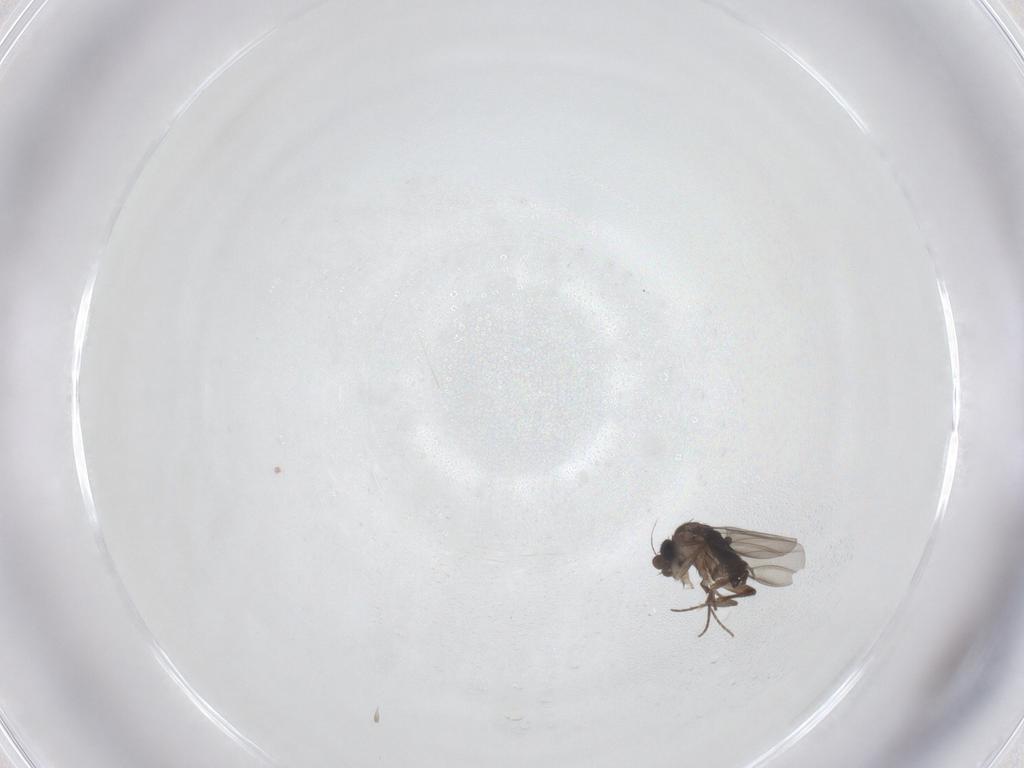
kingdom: Animalia
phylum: Arthropoda
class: Insecta
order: Diptera
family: Phoridae
